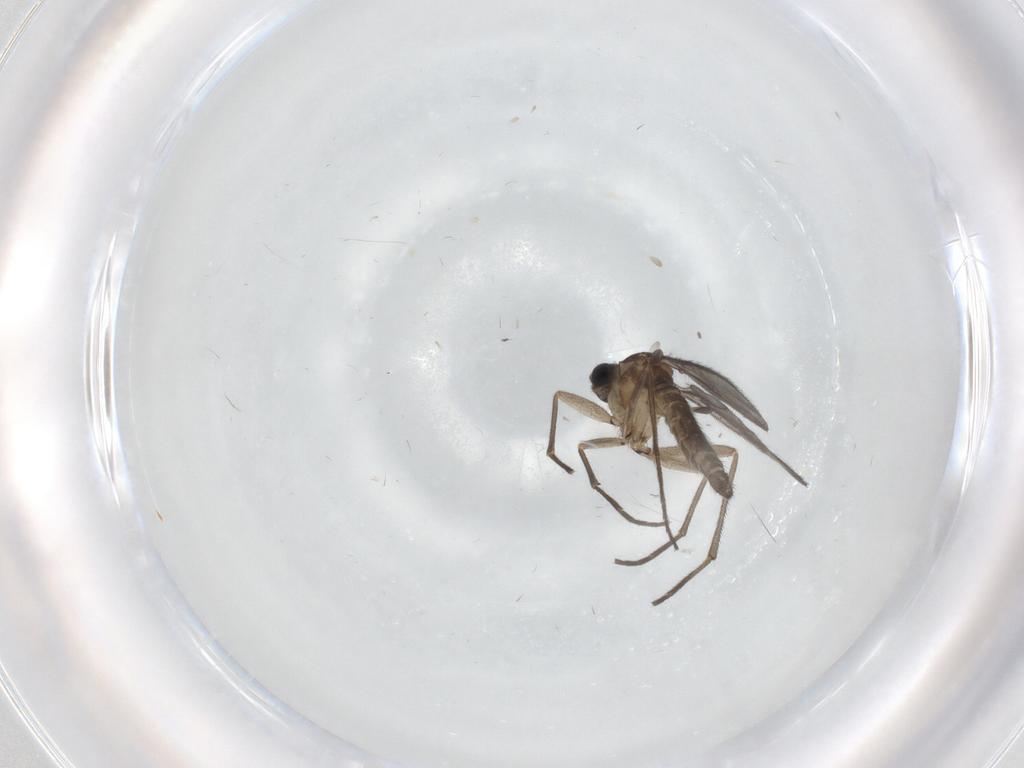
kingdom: Animalia
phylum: Arthropoda
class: Insecta
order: Diptera
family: Sciaridae
